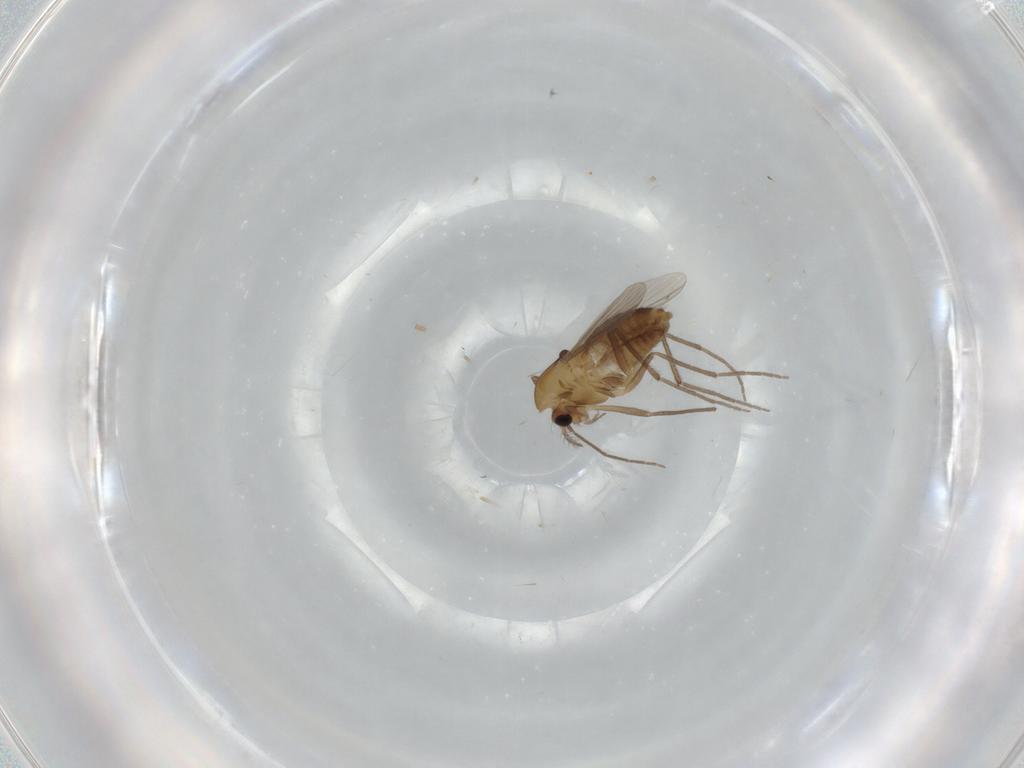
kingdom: Animalia
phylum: Arthropoda
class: Insecta
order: Diptera
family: Chironomidae
